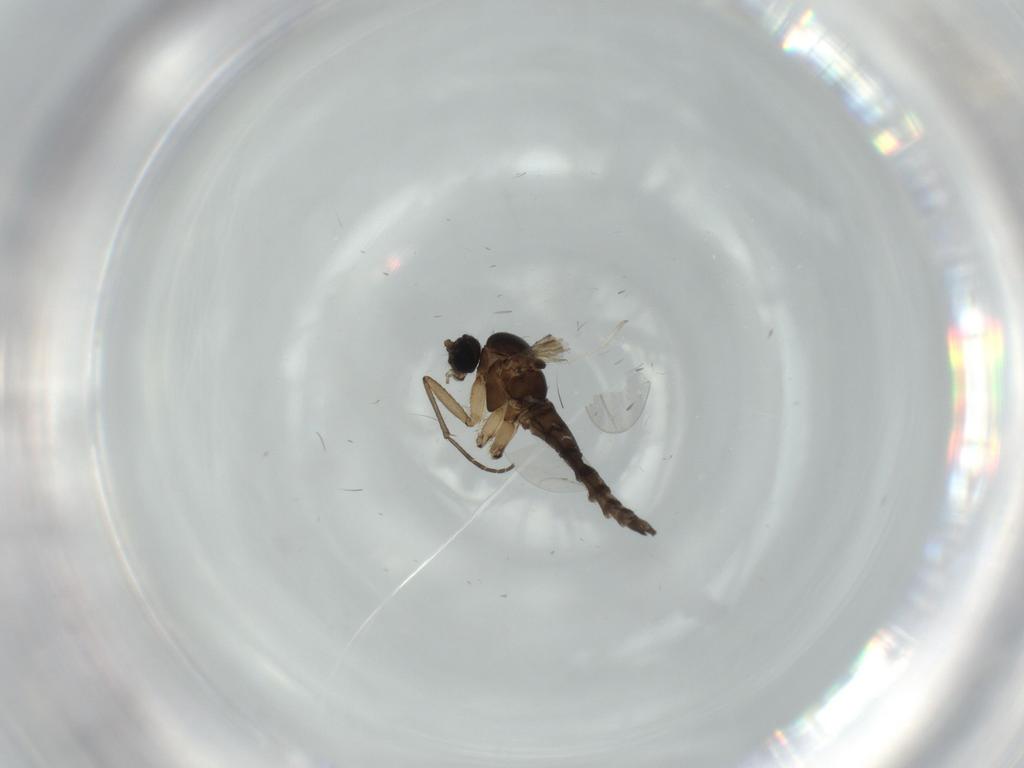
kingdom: Animalia
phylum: Arthropoda
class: Insecta
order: Diptera
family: Sciaridae
